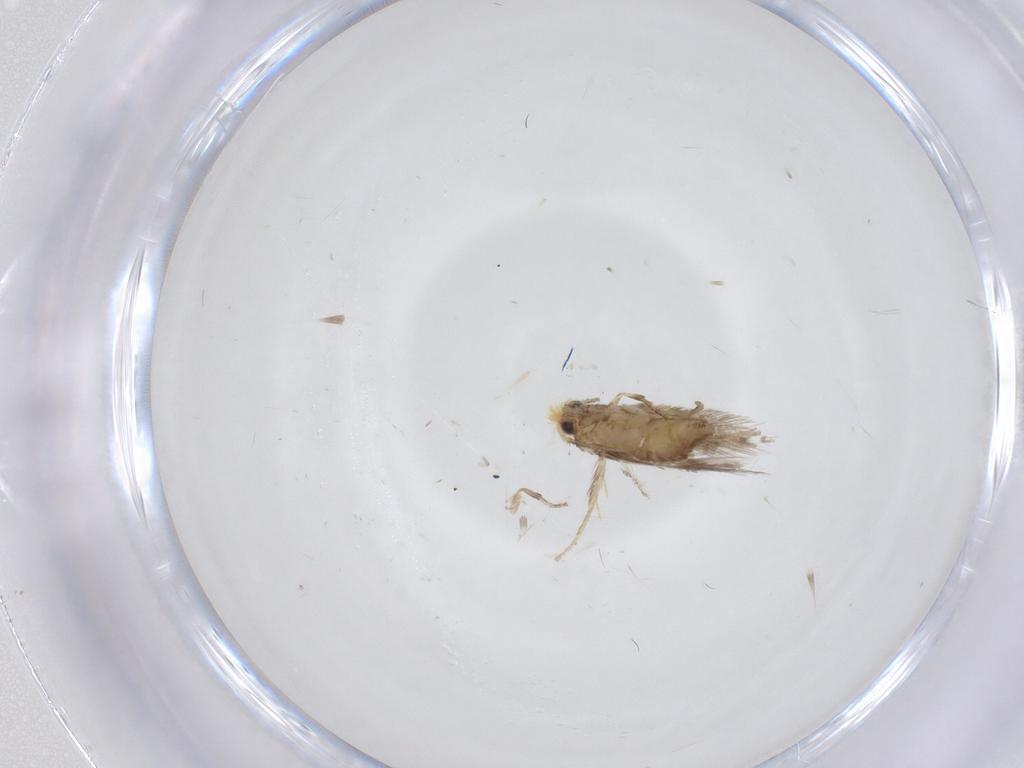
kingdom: Animalia
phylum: Arthropoda
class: Insecta
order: Lepidoptera
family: Nepticulidae
